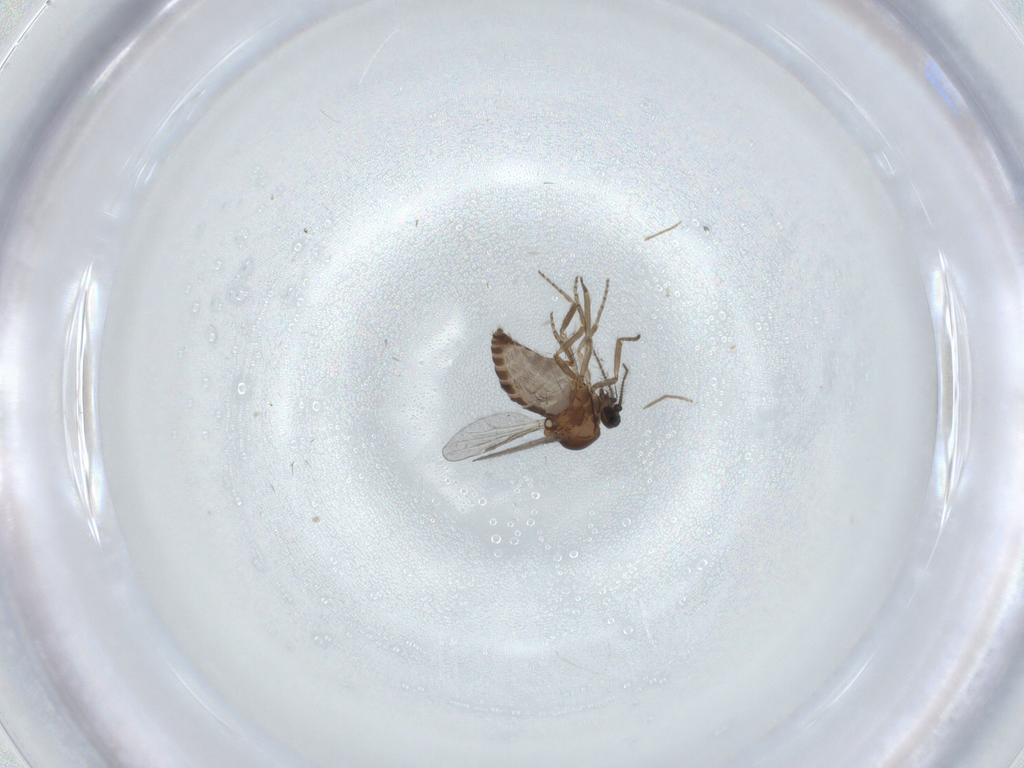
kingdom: Animalia
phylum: Arthropoda
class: Insecta
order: Diptera
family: Chironomidae
